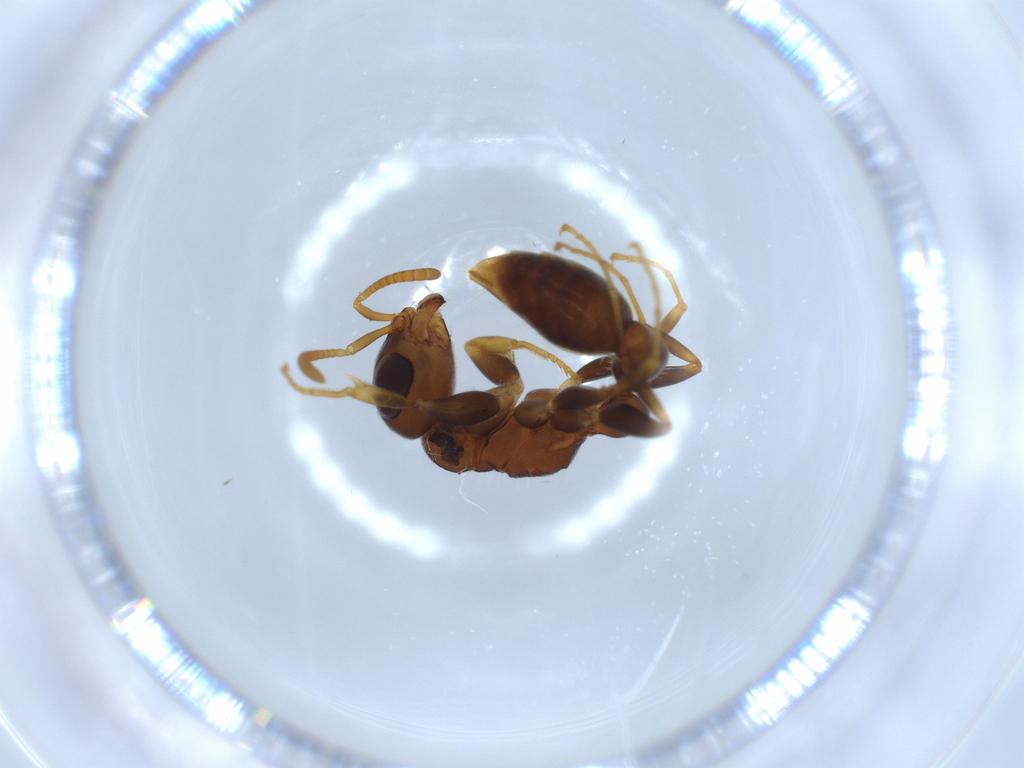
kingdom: Animalia
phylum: Arthropoda
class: Insecta
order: Hymenoptera
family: Formicidae
